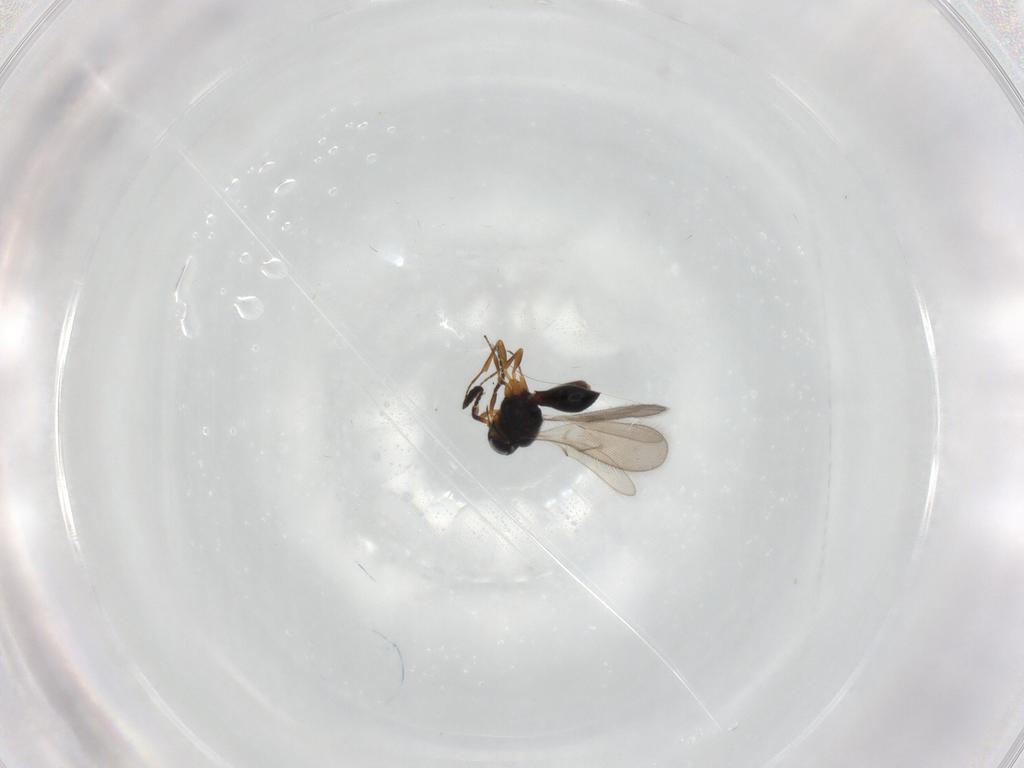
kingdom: Animalia
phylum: Arthropoda
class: Insecta
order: Hymenoptera
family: Scelionidae
